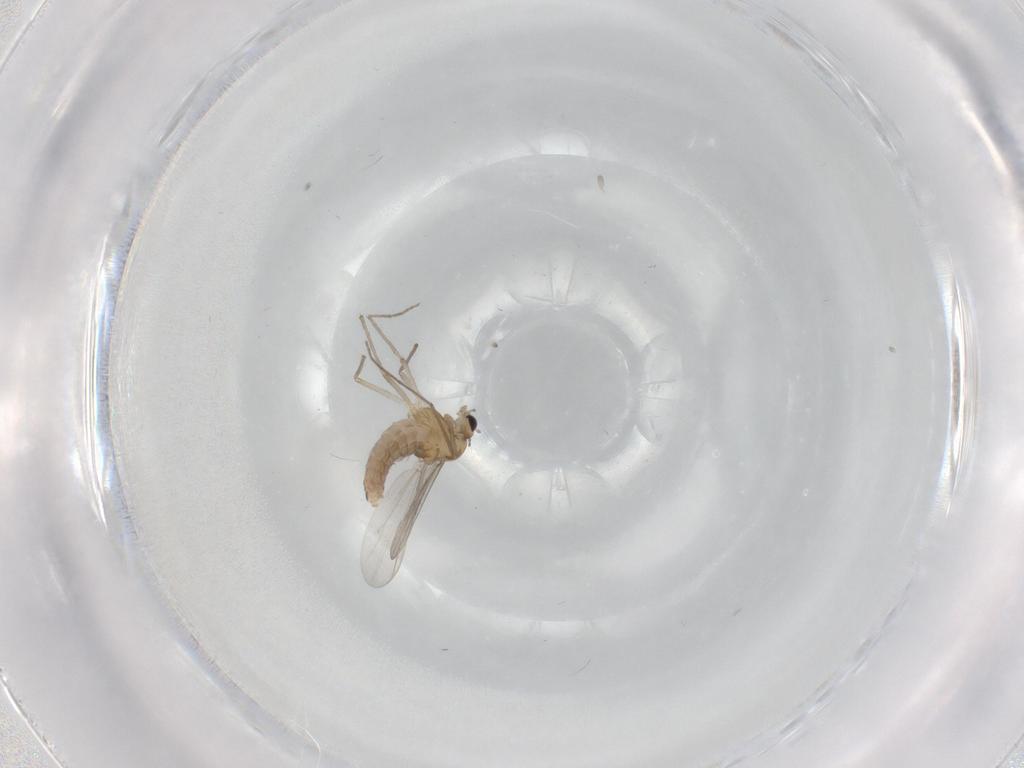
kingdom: Animalia
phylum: Arthropoda
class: Insecta
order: Diptera
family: Chironomidae
